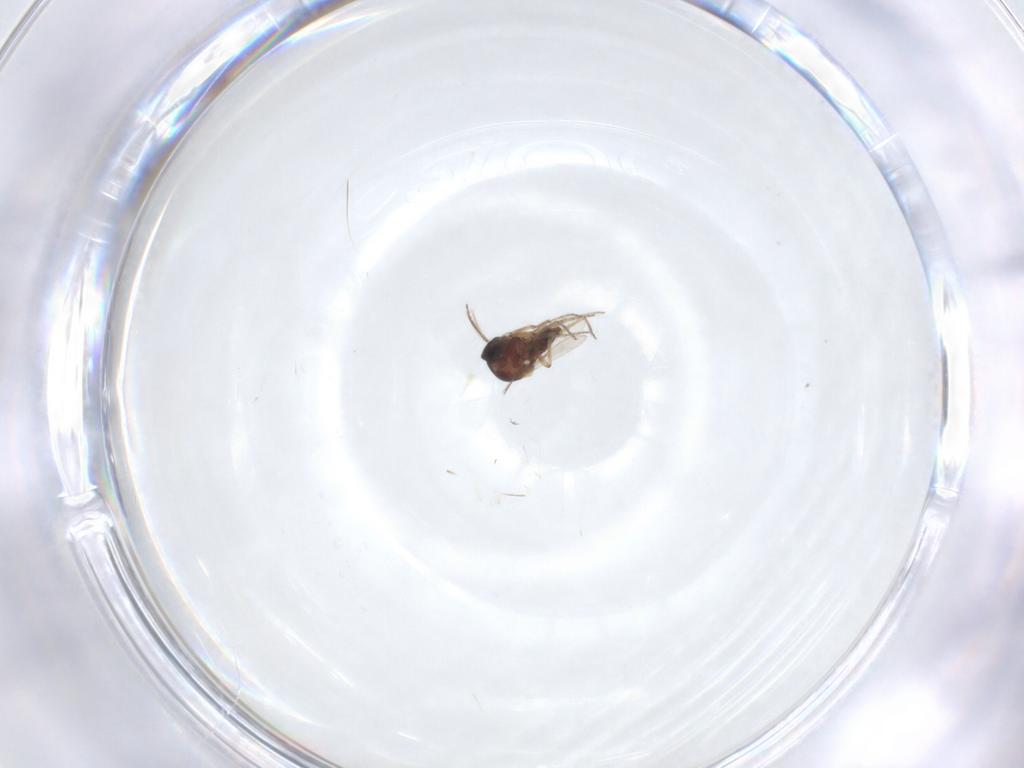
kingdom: Animalia
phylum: Arthropoda
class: Insecta
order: Diptera
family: Ceratopogonidae
